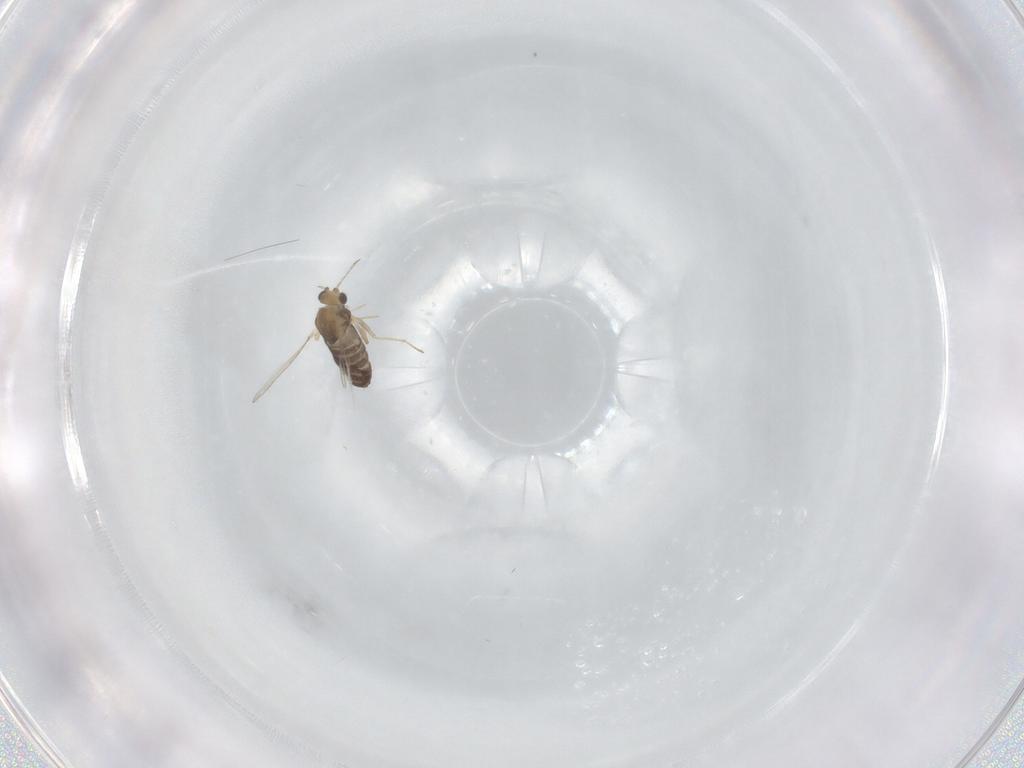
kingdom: Animalia
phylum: Arthropoda
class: Insecta
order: Diptera
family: Chironomidae
